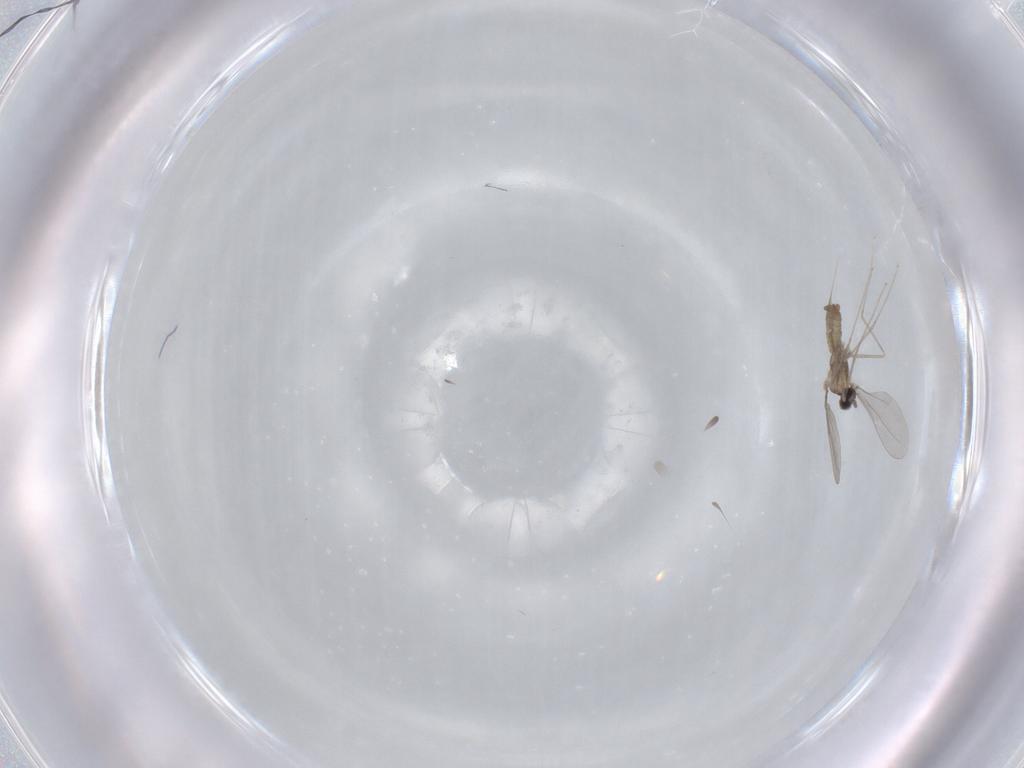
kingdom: Animalia
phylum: Arthropoda
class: Insecta
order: Diptera
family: Cecidomyiidae
